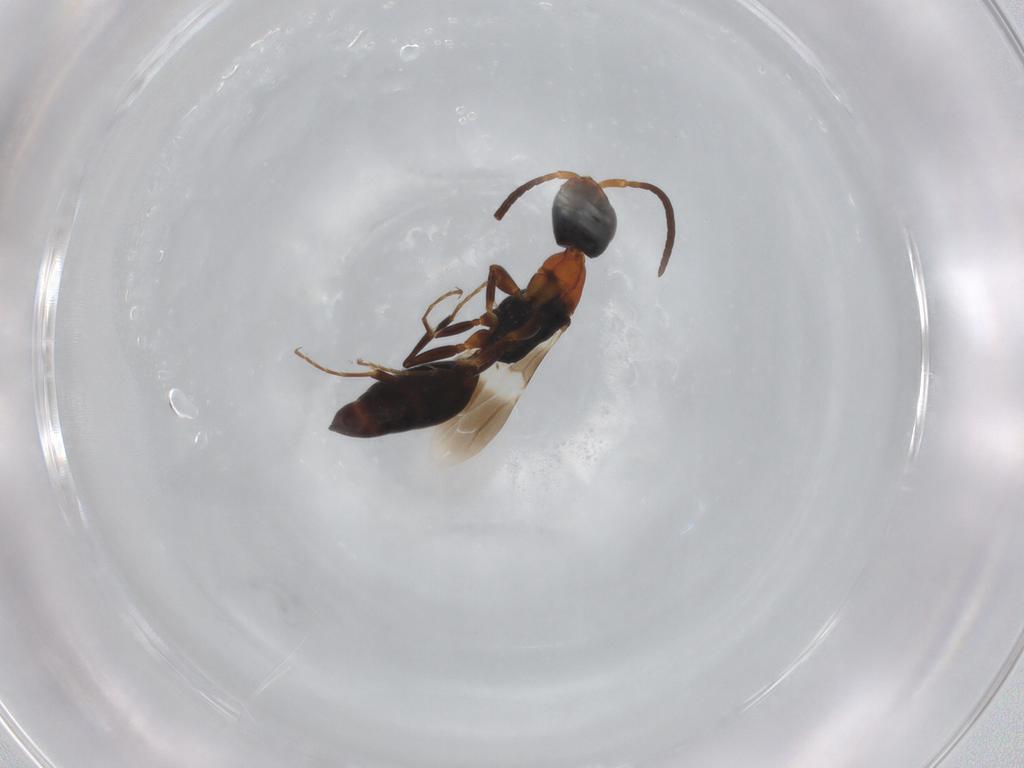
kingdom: Animalia
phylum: Arthropoda
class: Insecta
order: Hymenoptera
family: Bethylidae
